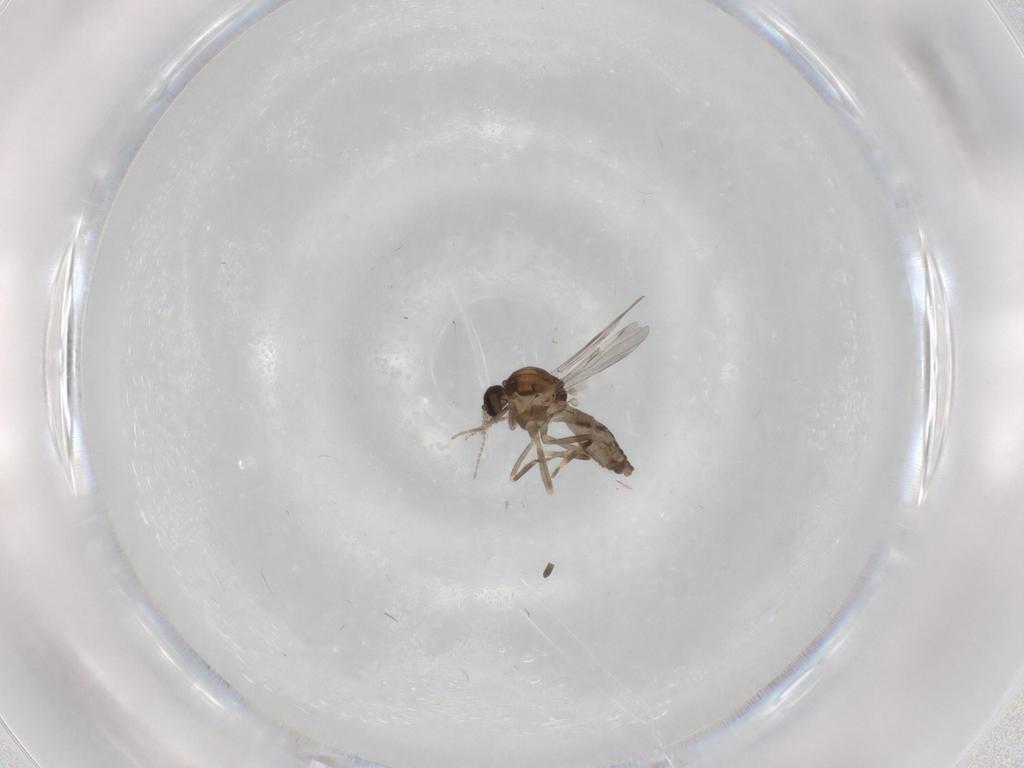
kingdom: Animalia
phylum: Arthropoda
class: Insecta
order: Diptera
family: Ceratopogonidae
